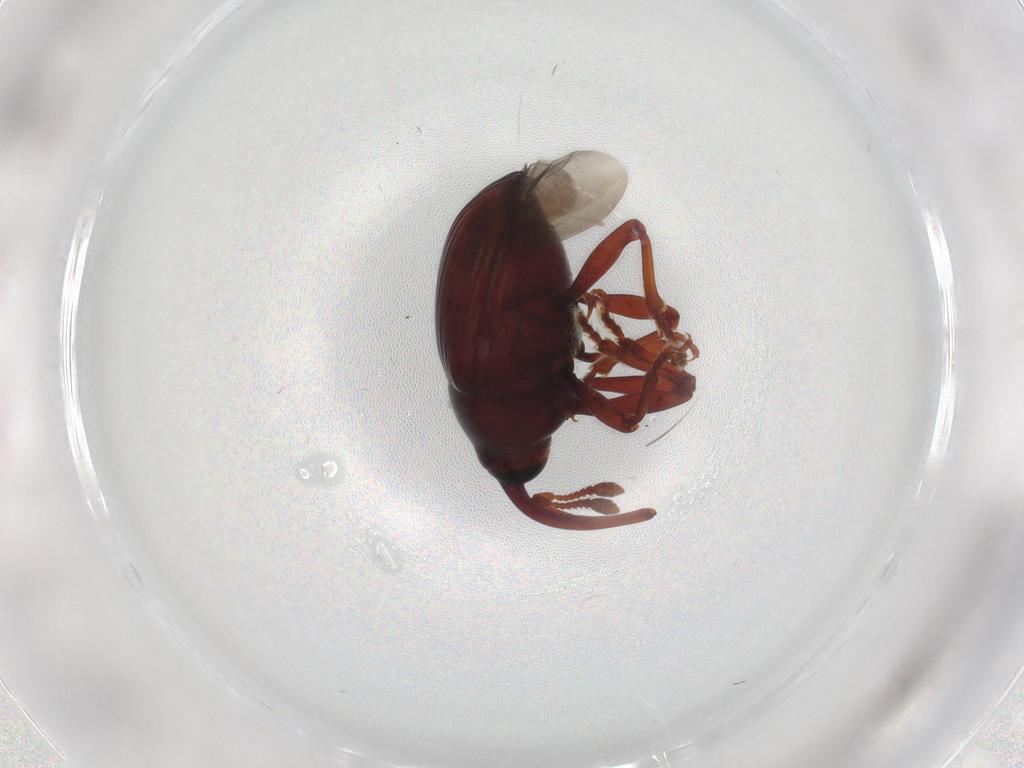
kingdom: Animalia
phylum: Arthropoda
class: Insecta
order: Coleoptera
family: Curculionidae
